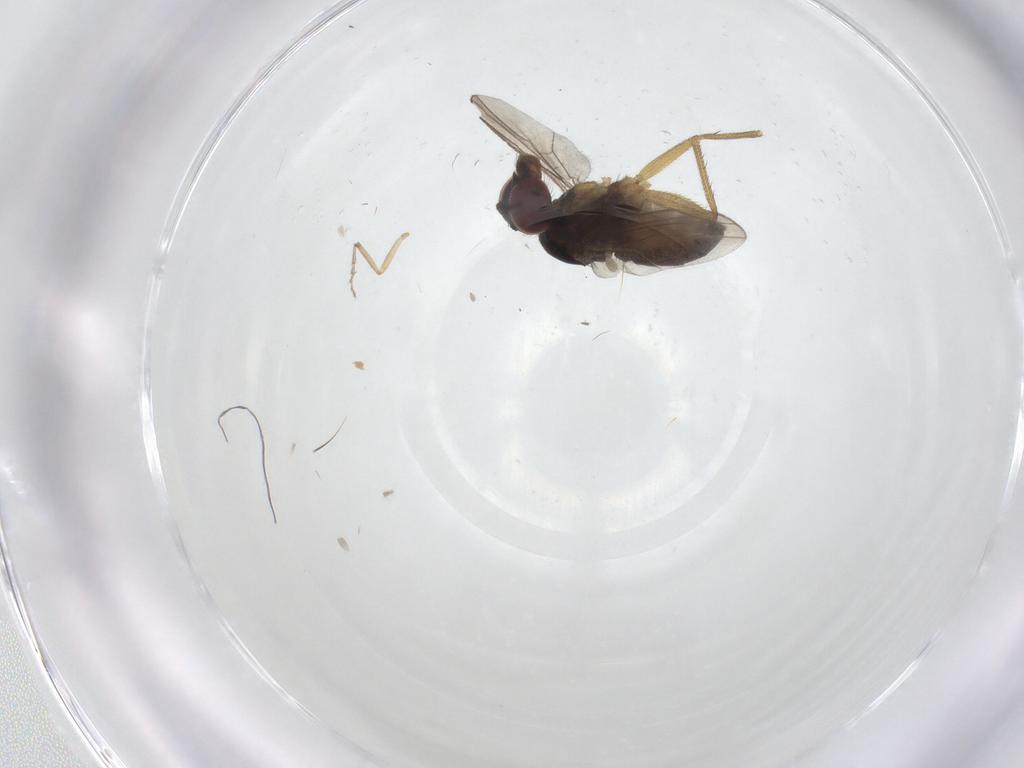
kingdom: Animalia
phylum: Arthropoda
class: Insecta
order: Diptera
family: Dolichopodidae
